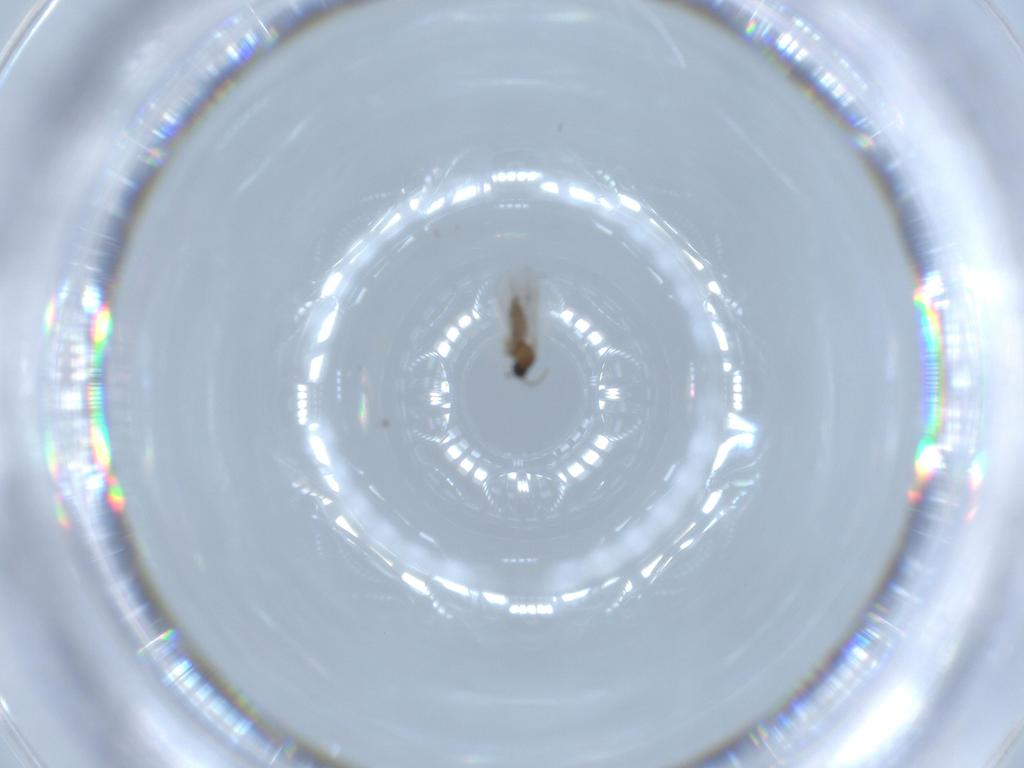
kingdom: Animalia
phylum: Arthropoda
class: Insecta
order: Diptera
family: Cecidomyiidae
